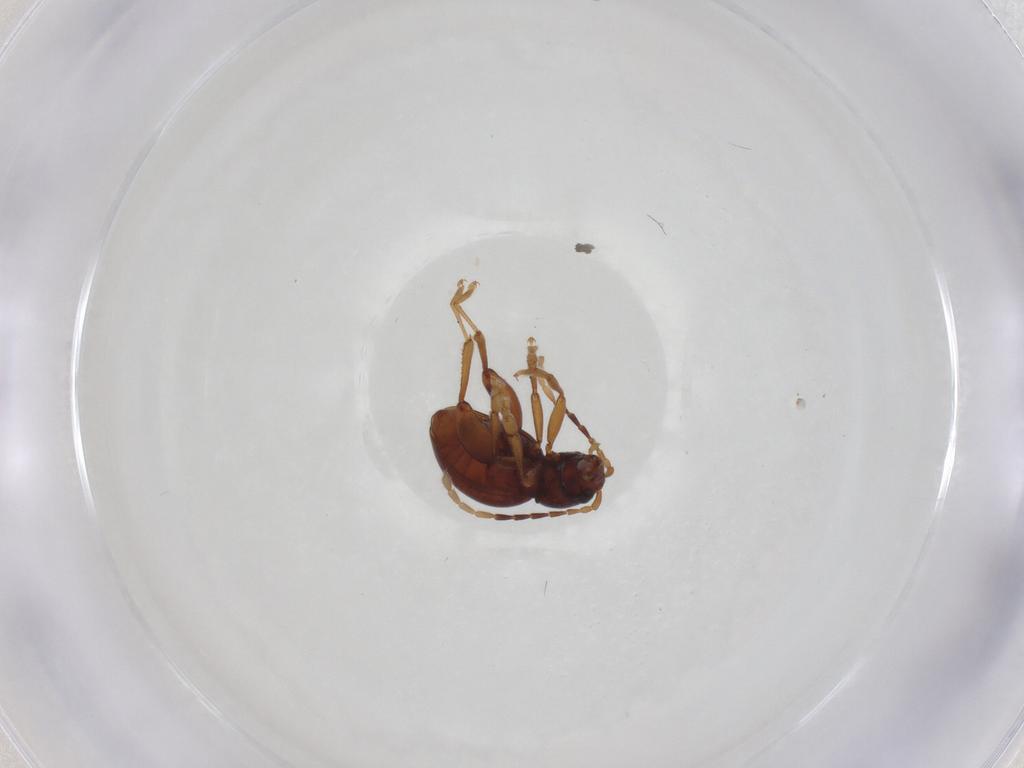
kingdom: Animalia
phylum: Arthropoda
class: Insecta
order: Coleoptera
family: Chrysomelidae
